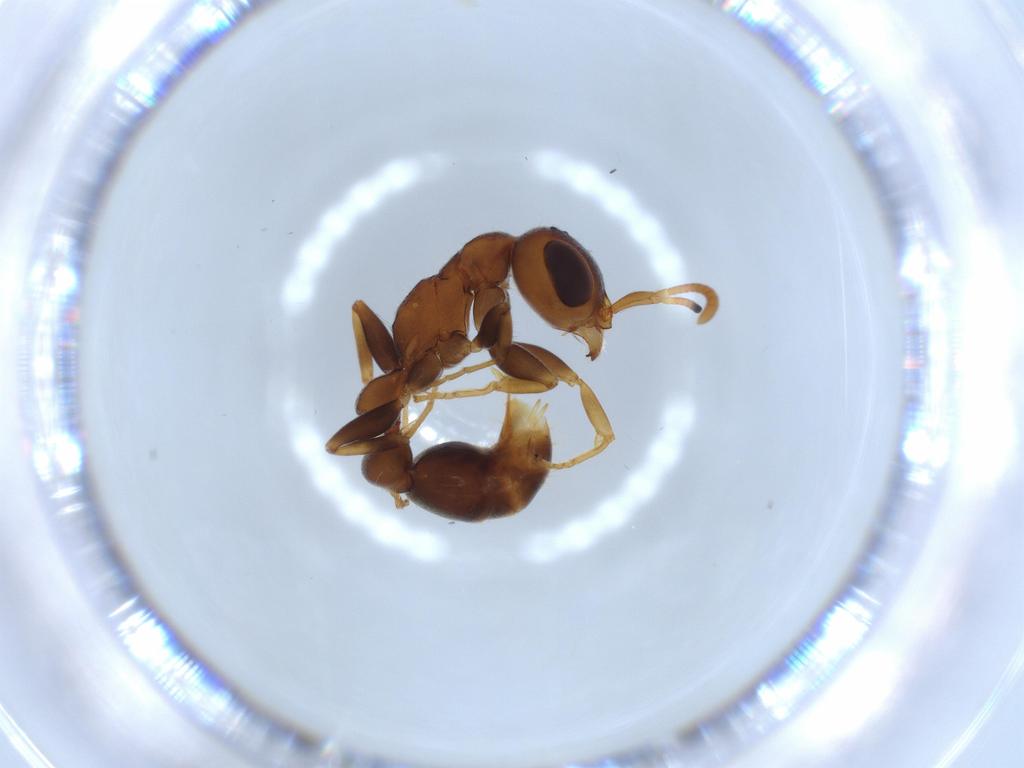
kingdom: Animalia
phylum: Arthropoda
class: Insecta
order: Hymenoptera
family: Formicidae
